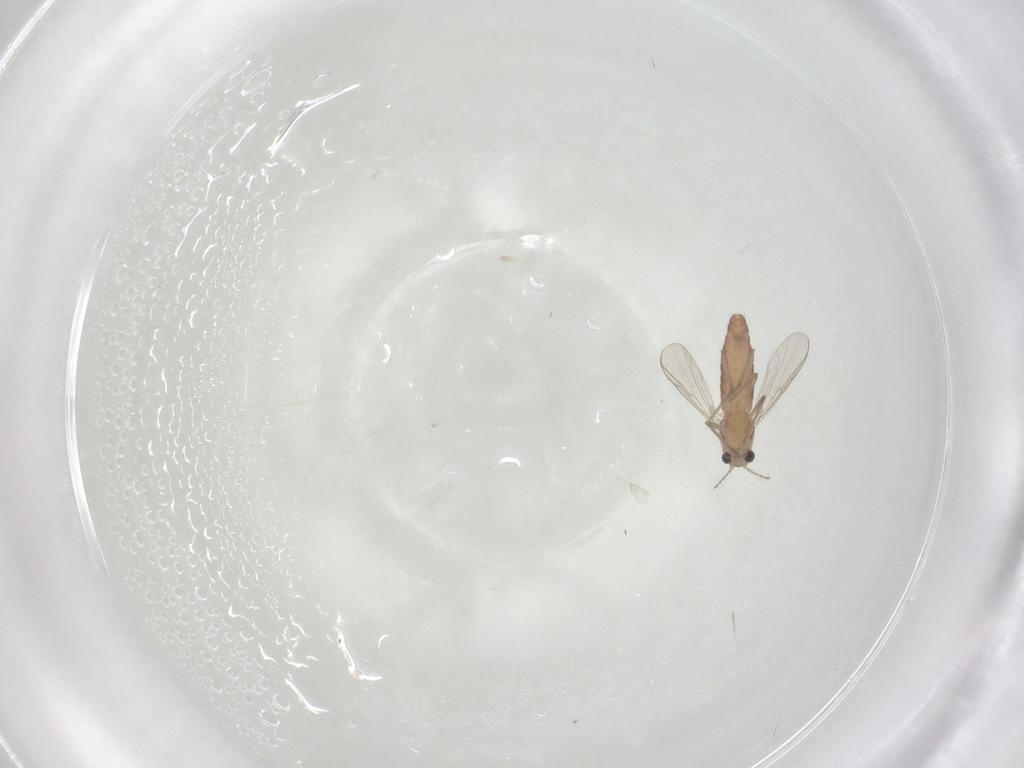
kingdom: Animalia
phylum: Arthropoda
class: Insecta
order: Diptera
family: Chironomidae
